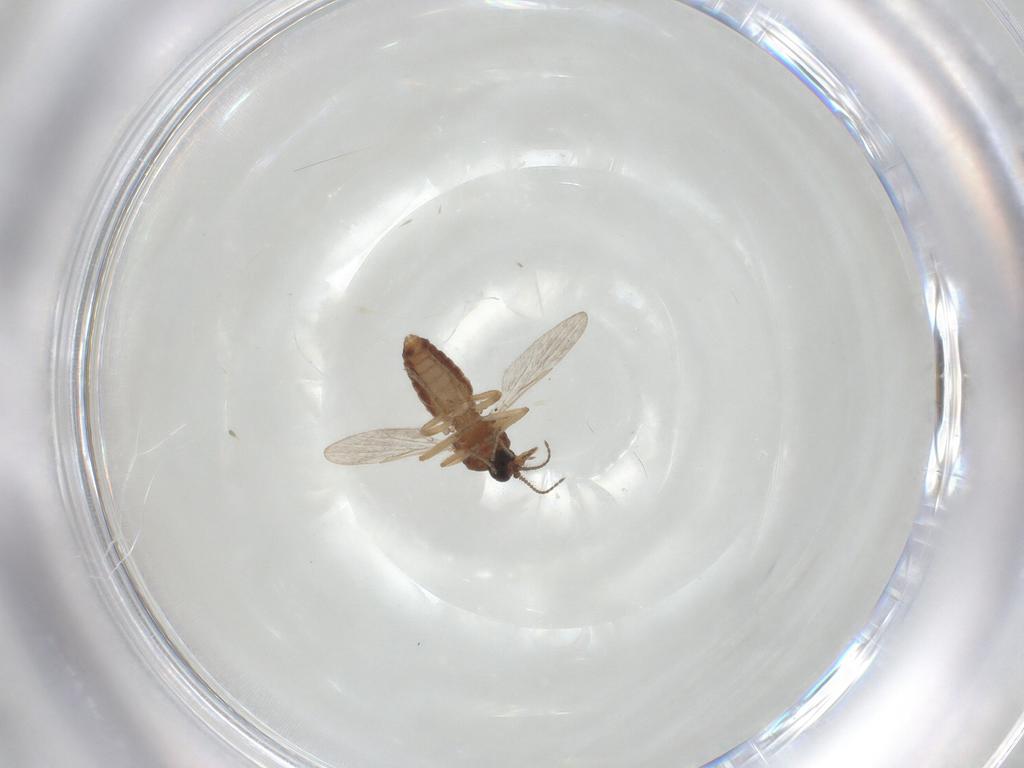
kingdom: Animalia
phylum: Arthropoda
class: Insecta
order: Diptera
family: Ceratopogonidae
